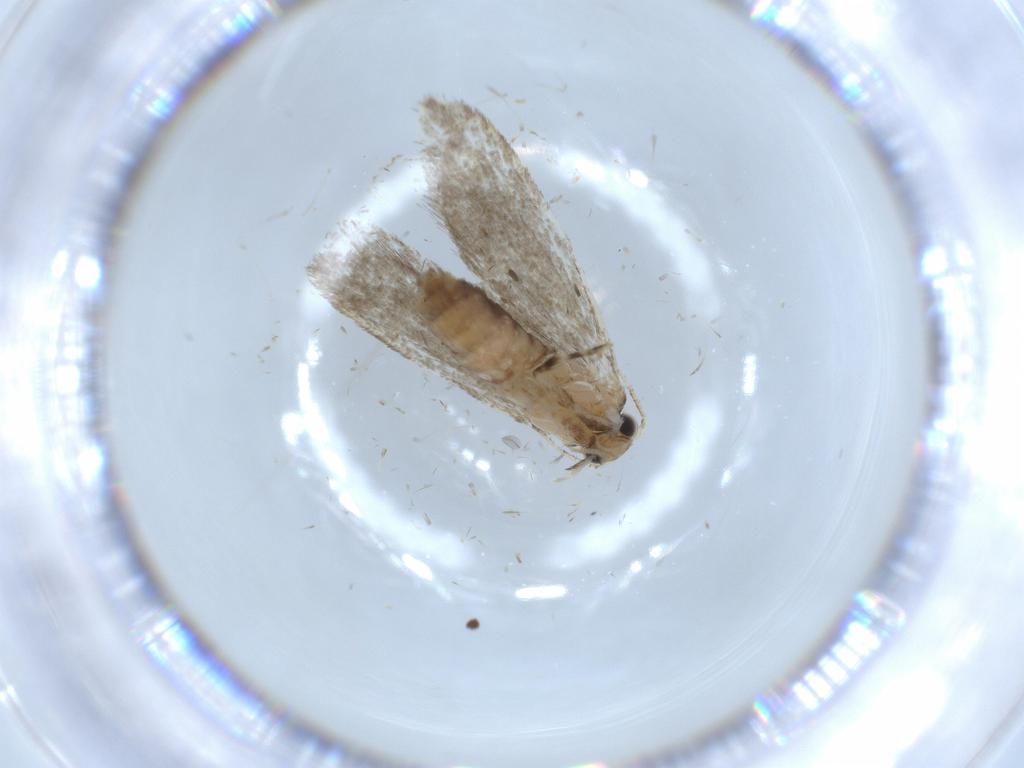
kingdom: Animalia
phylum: Arthropoda
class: Insecta
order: Lepidoptera
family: Tineidae
